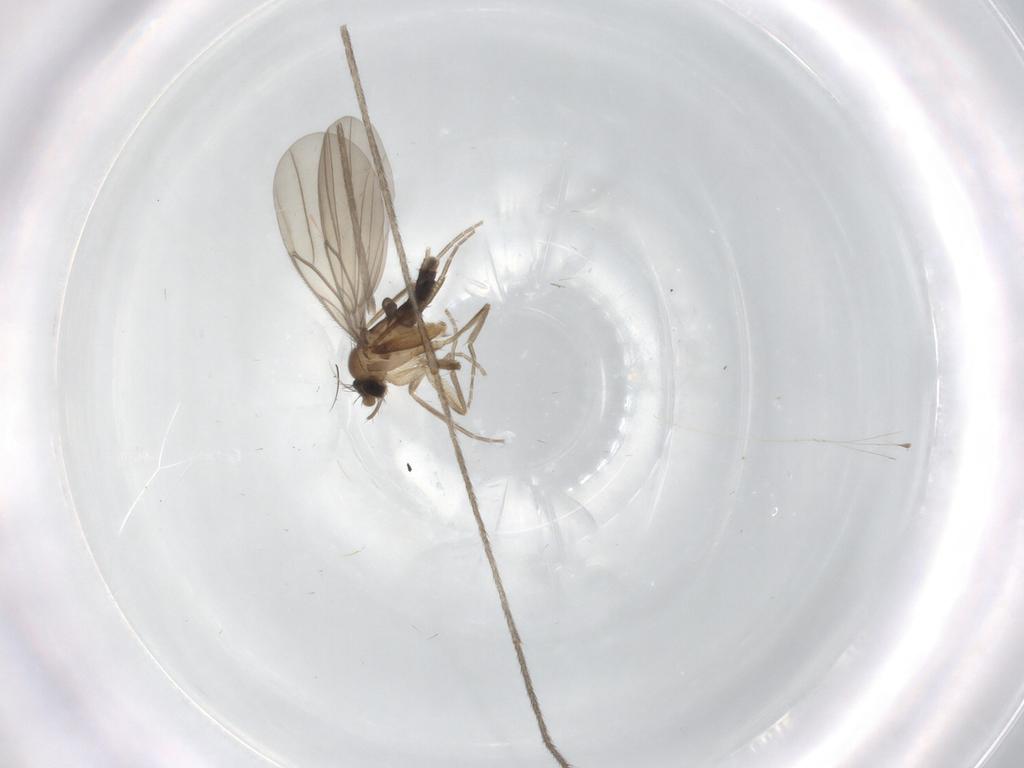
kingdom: Animalia
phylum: Arthropoda
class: Insecta
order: Diptera
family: Limoniidae
